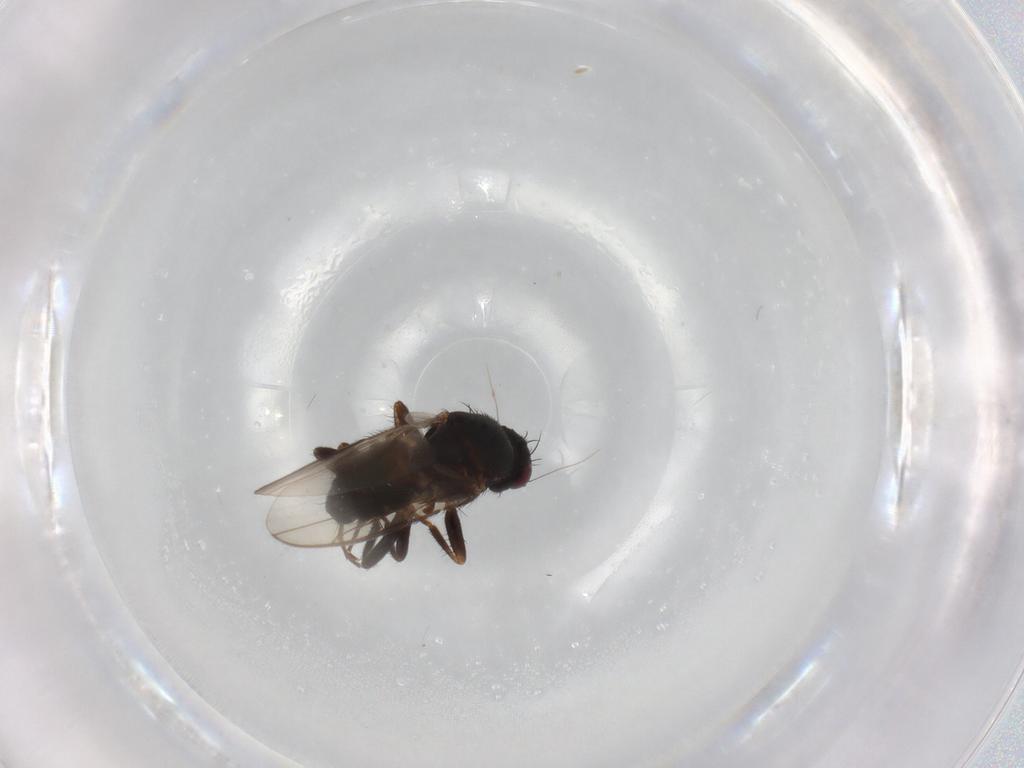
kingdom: Animalia
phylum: Arthropoda
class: Insecta
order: Diptera
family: Sphaeroceridae
